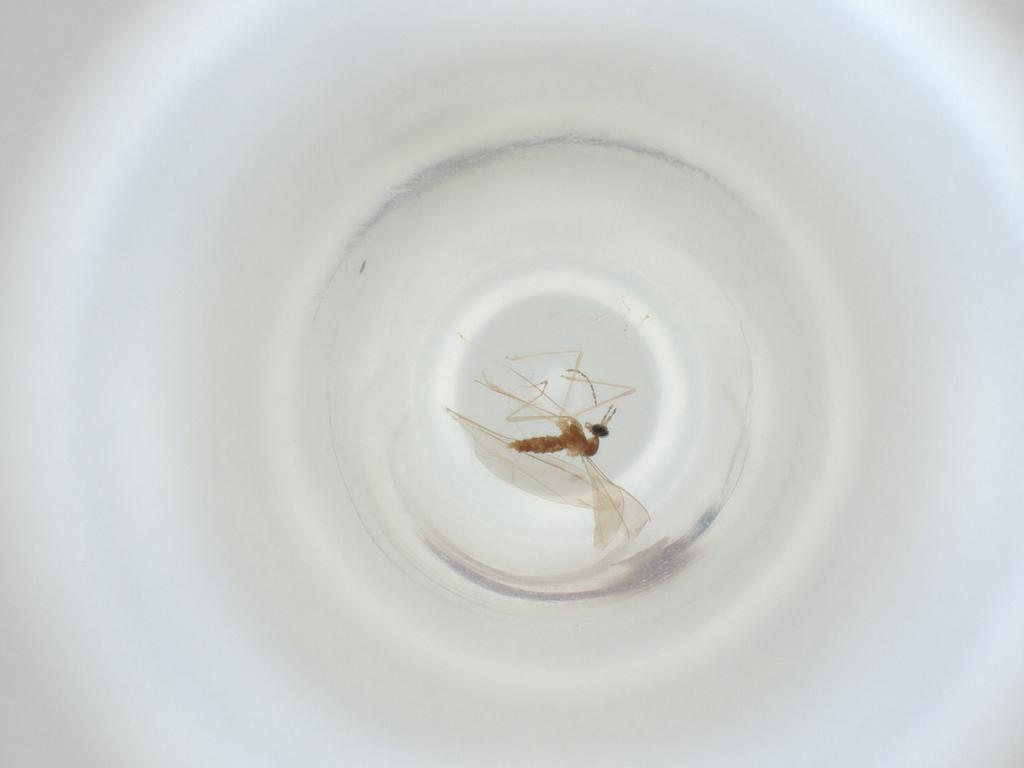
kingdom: Animalia
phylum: Arthropoda
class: Insecta
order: Diptera
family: Cecidomyiidae
